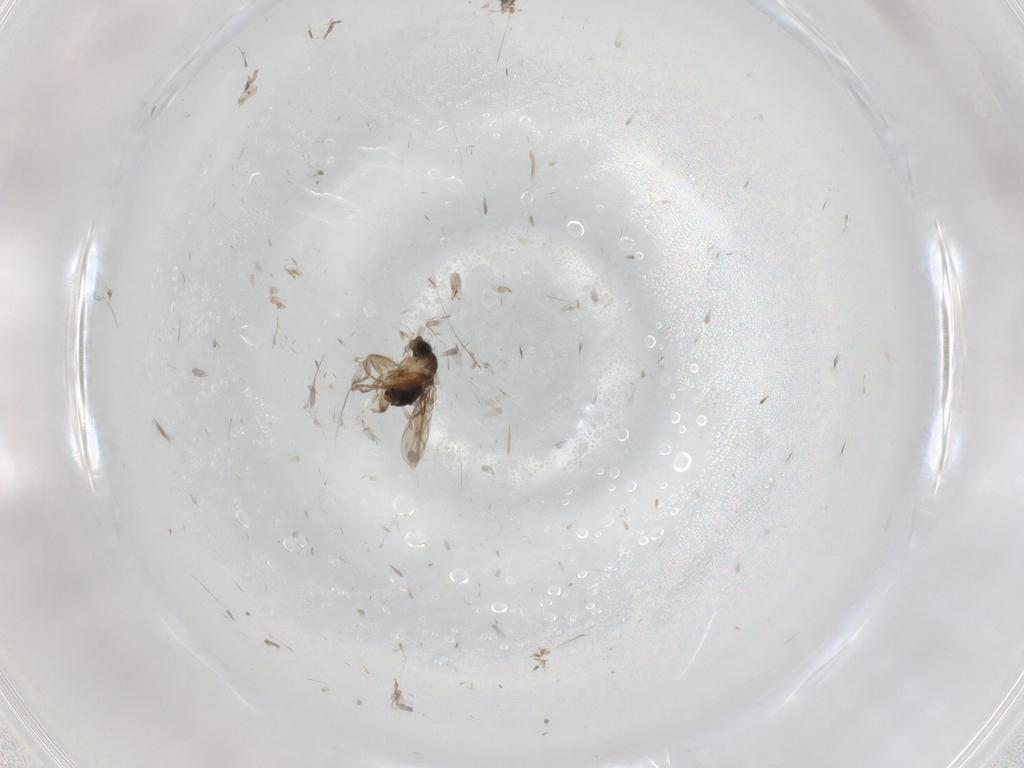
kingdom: Animalia
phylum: Arthropoda
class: Insecta
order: Diptera
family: Phoridae
